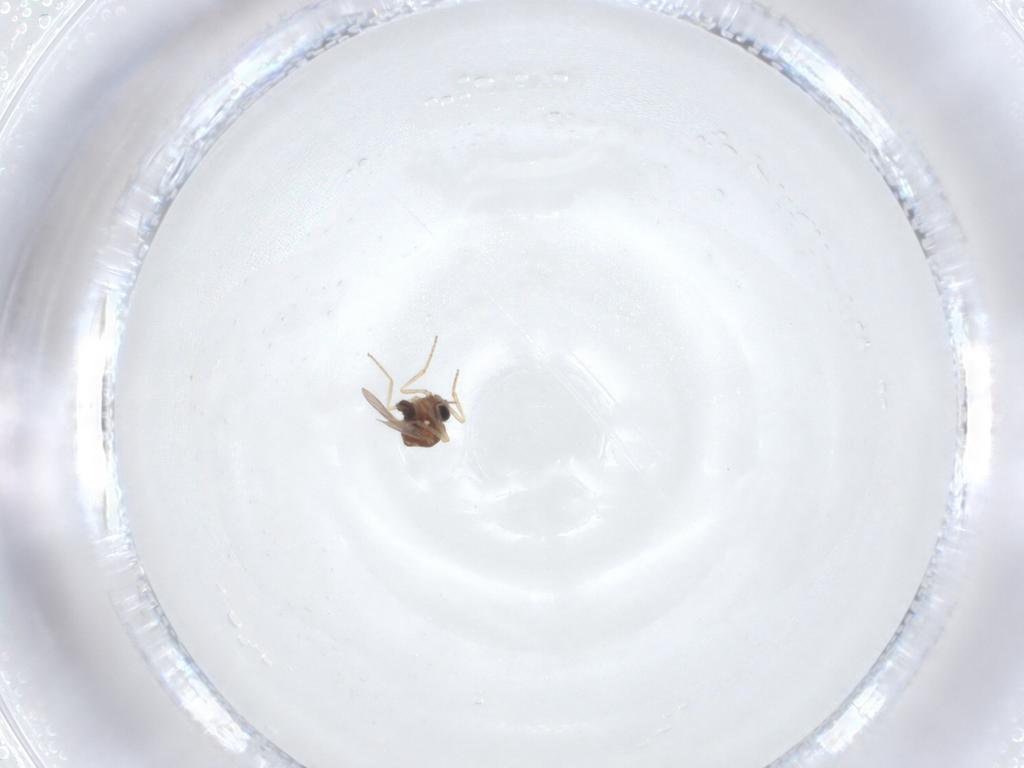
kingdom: Animalia
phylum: Arthropoda
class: Insecta
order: Diptera
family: Ceratopogonidae
